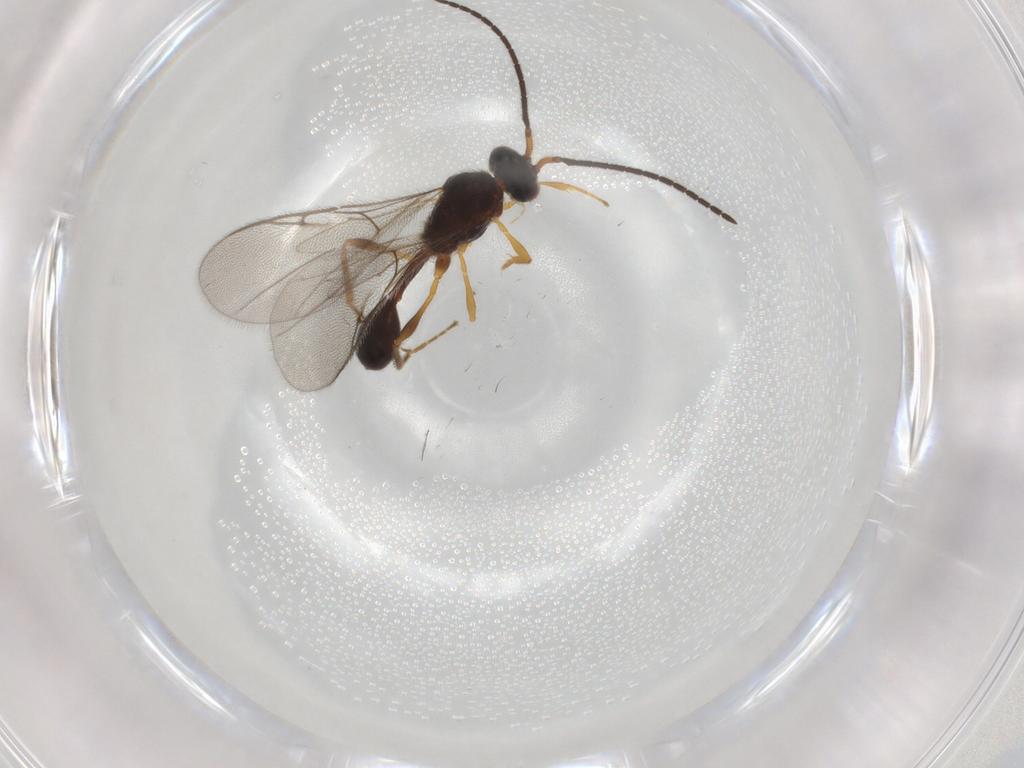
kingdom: Animalia
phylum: Arthropoda
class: Insecta
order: Hymenoptera
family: Diapriidae
